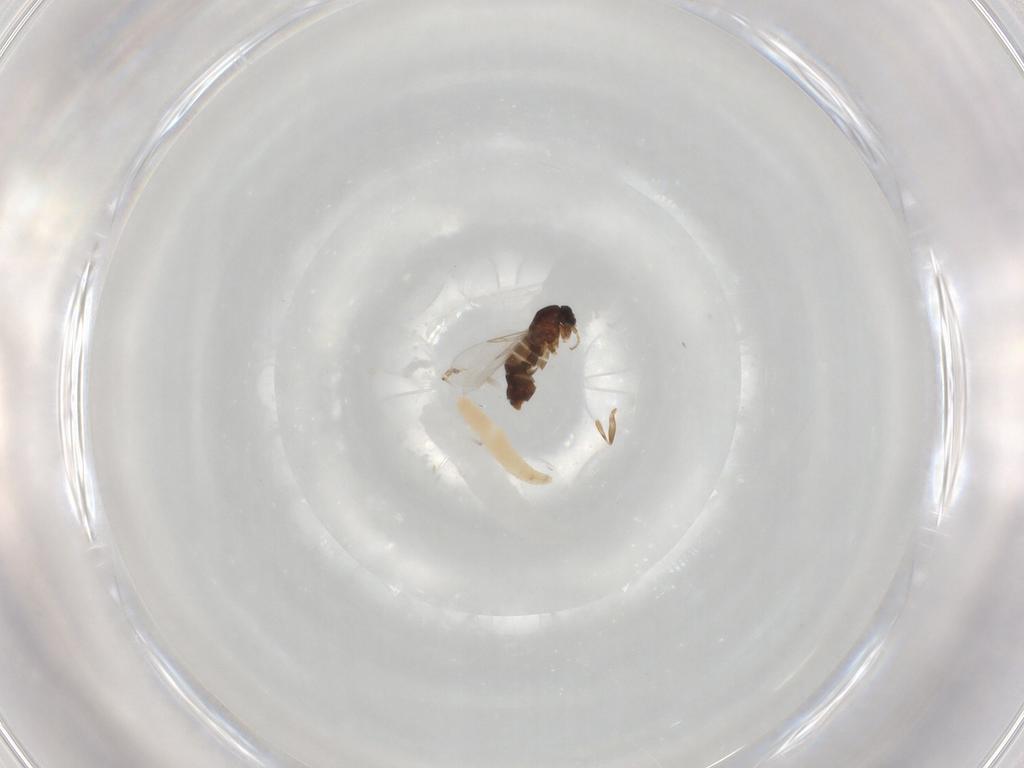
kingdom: Animalia
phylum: Arthropoda
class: Insecta
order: Diptera
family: Scatopsidae
